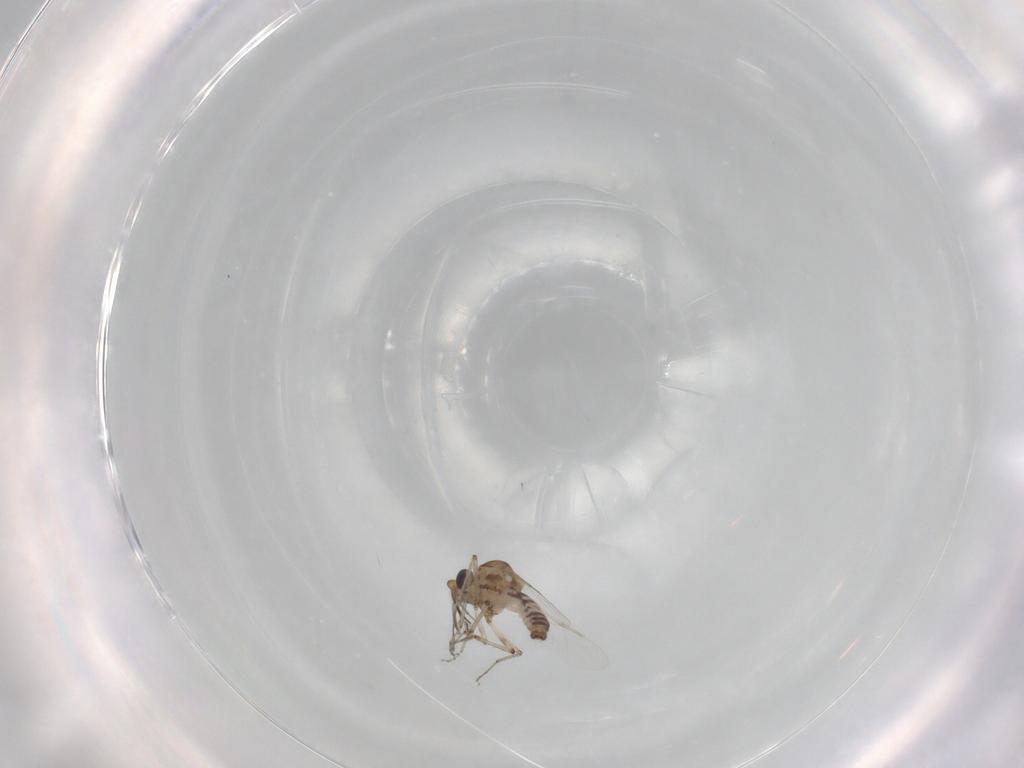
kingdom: Animalia
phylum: Arthropoda
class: Insecta
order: Diptera
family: Ceratopogonidae
